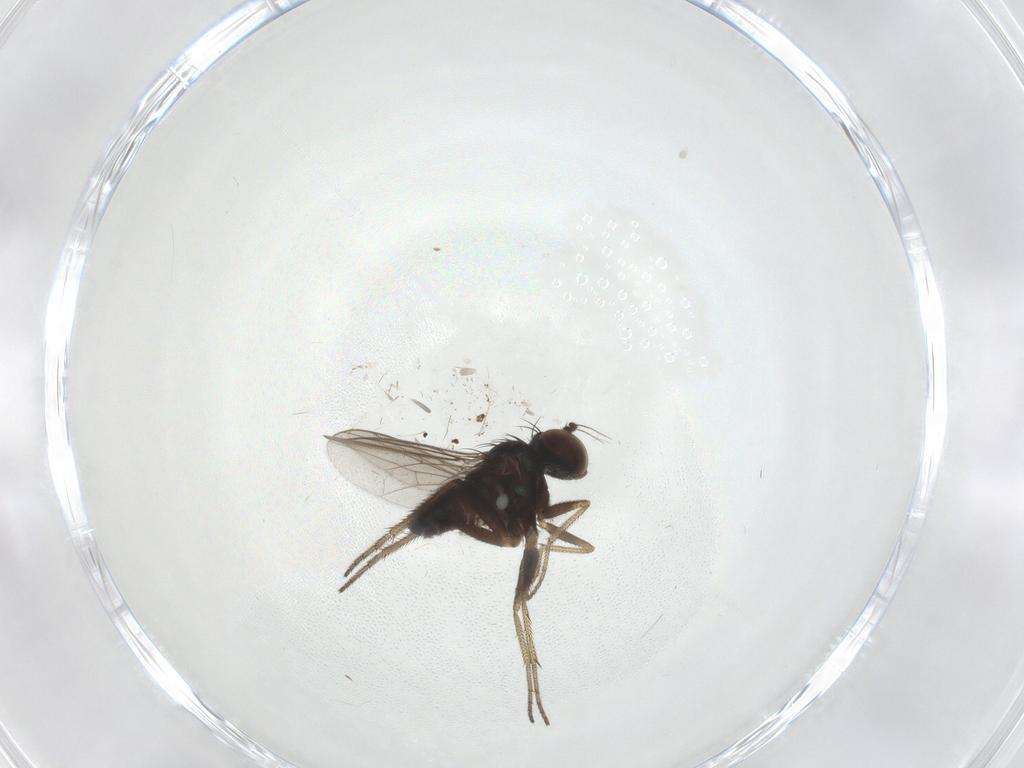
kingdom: Animalia
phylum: Arthropoda
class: Insecta
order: Diptera
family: Dolichopodidae
